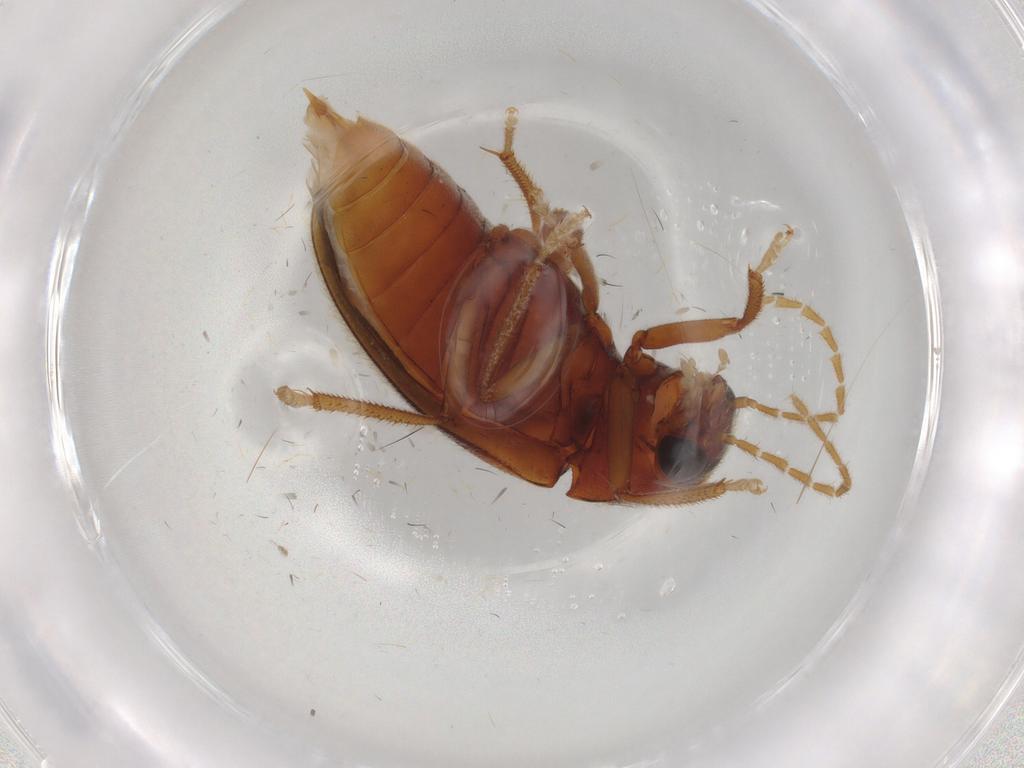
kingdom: Animalia
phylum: Arthropoda
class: Insecta
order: Coleoptera
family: Ptilodactylidae
